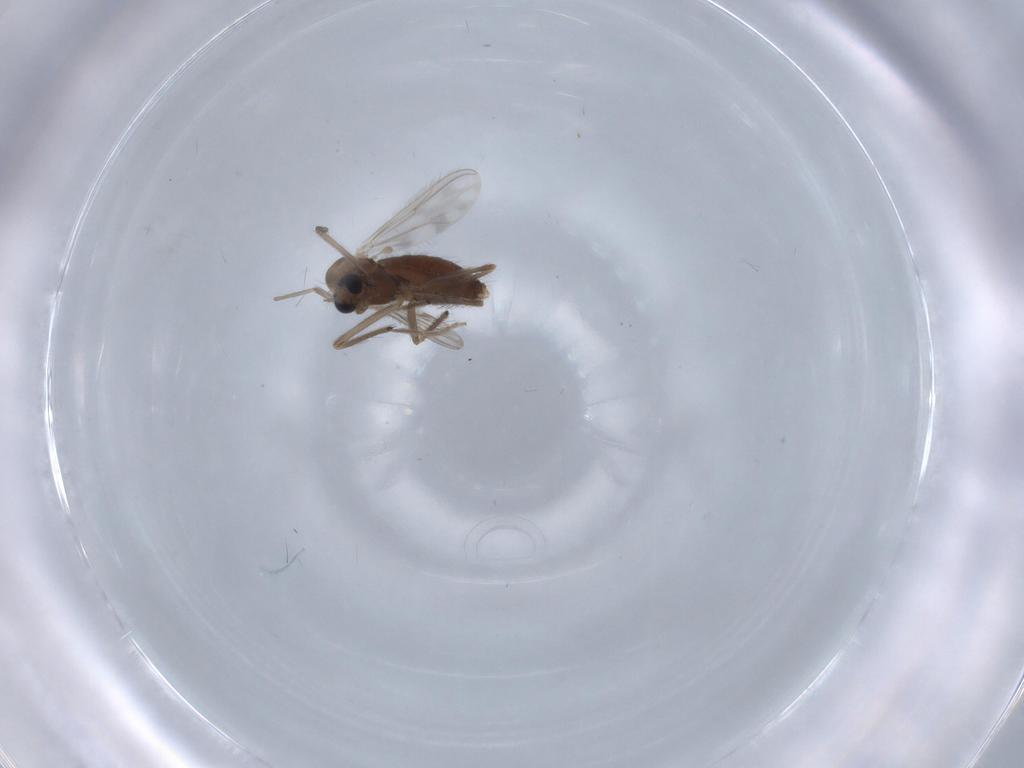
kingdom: Animalia
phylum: Arthropoda
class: Insecta
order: Diptera
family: Chironomidae
